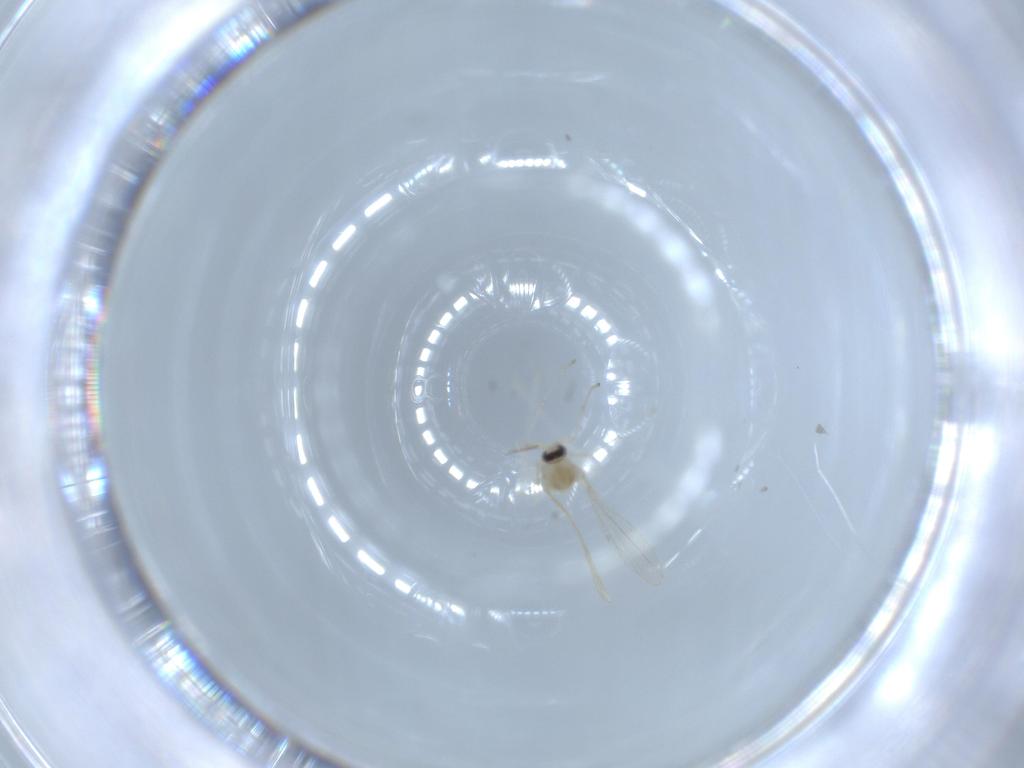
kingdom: Animalia
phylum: Arthropoda
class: Insecta
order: Diptera
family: Cecidomyiidae
